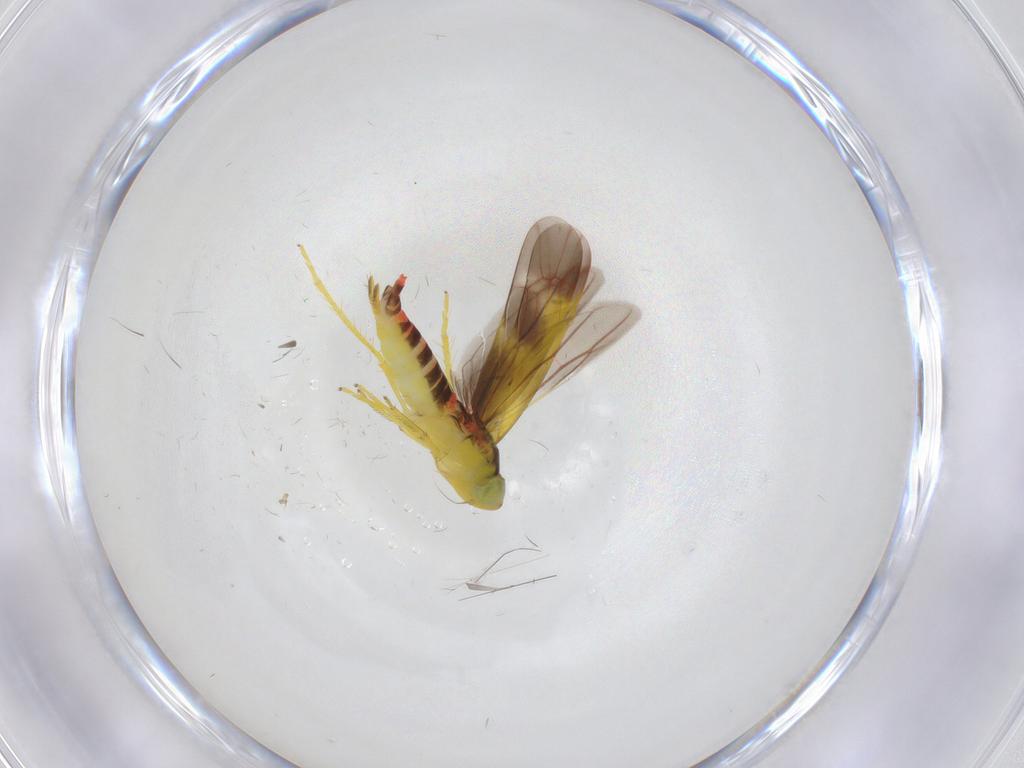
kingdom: Animalia
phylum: Arthropoda
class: Insecta
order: Hemiptera
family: Cicadellidae
